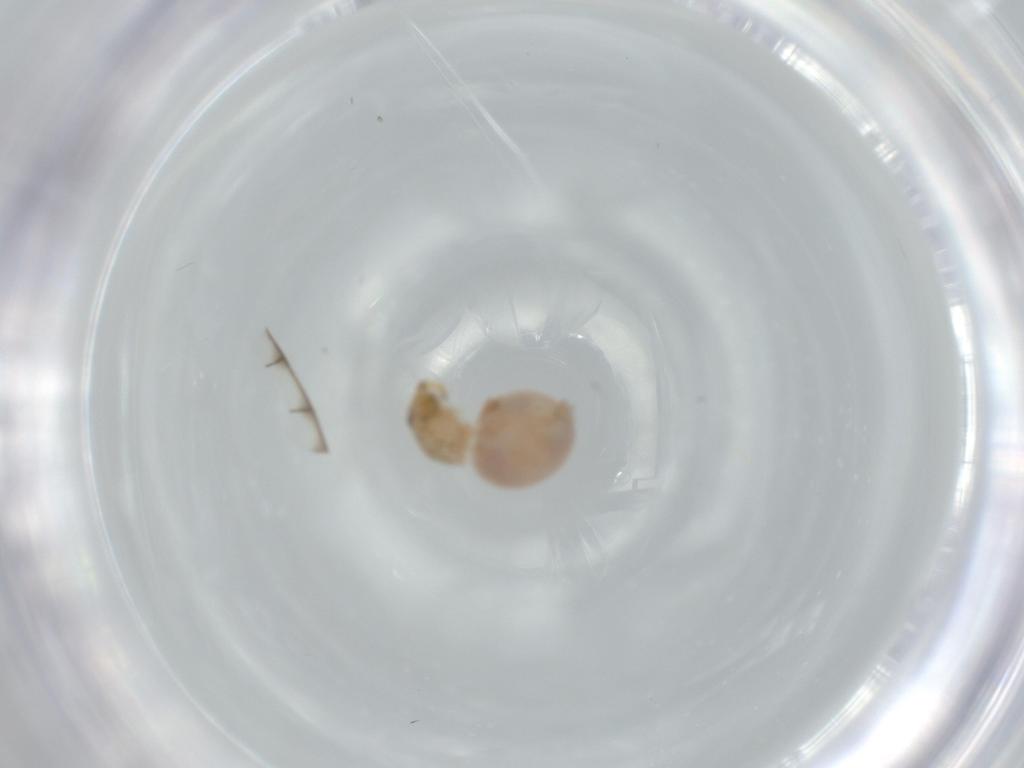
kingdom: Animalia
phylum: Arthropoda
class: Arachnida
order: Araneae
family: Oonopidae
